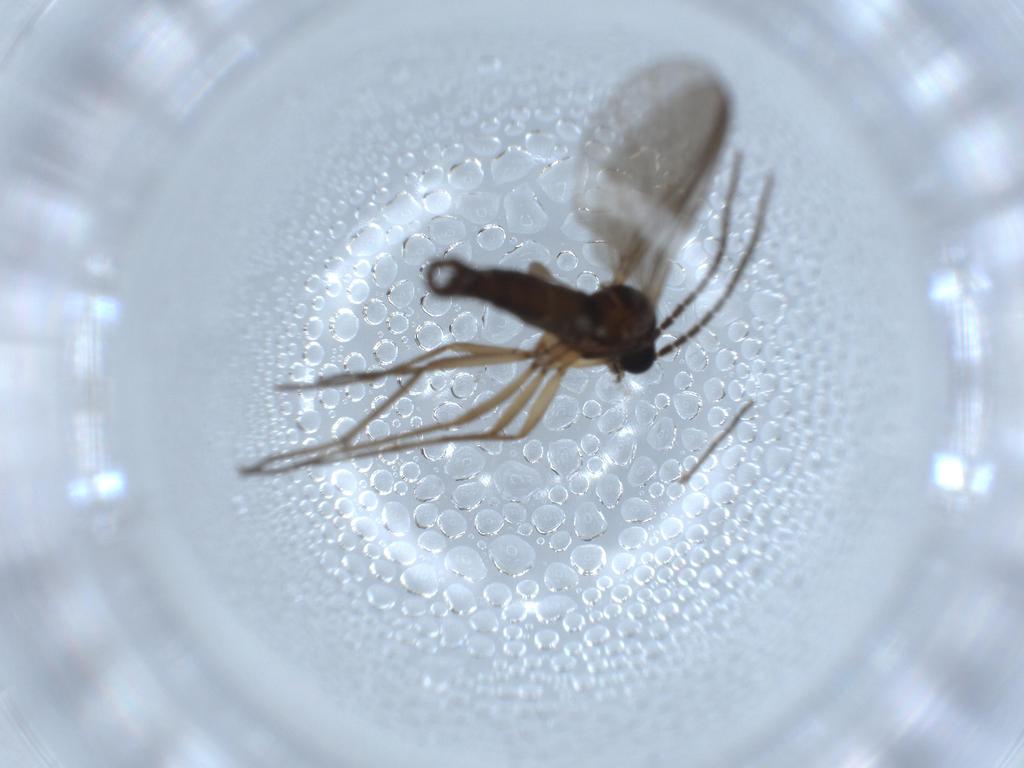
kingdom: Animalia
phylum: Arthropoda
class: Insecta
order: Diptera
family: Sciaridae
